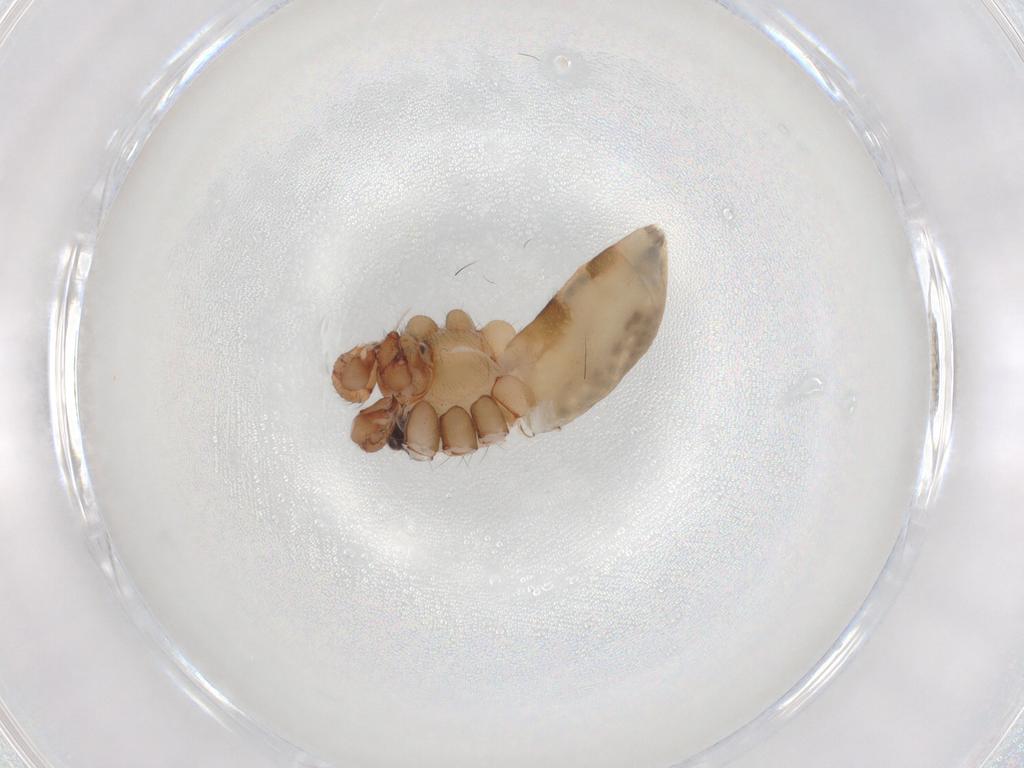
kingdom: Animalia
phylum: Arthropoda
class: Arachnida
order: Araneae
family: Pholcidae
